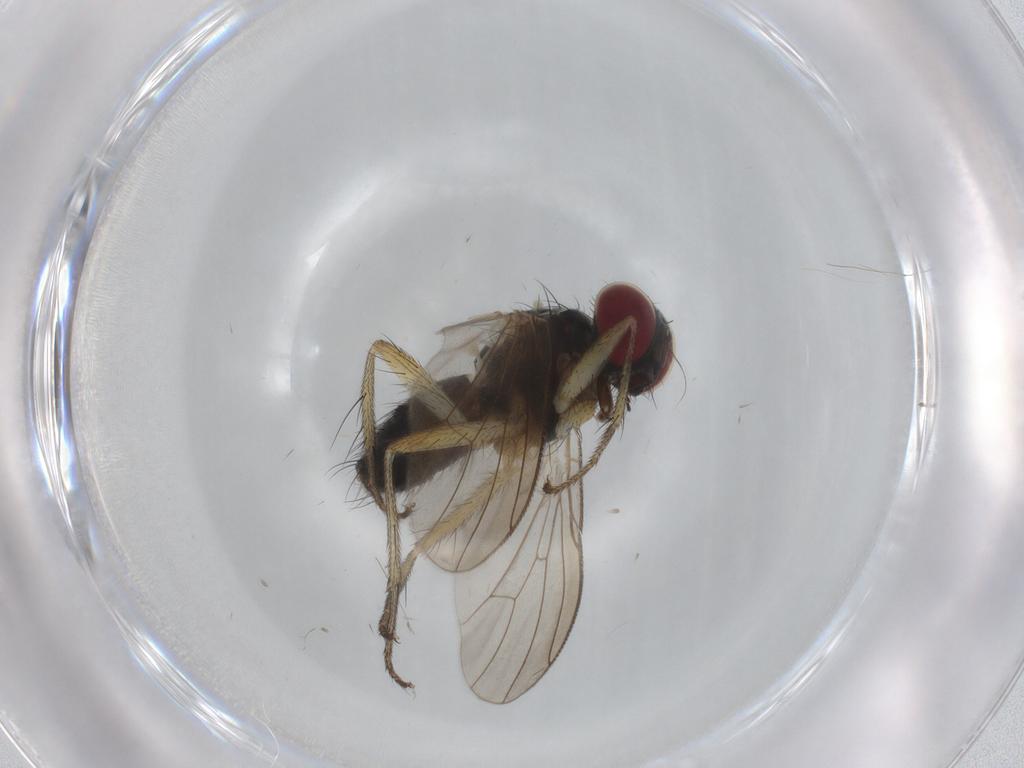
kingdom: Animalia
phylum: Arthropoda
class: Insecta
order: Diptera
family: Muscidae
